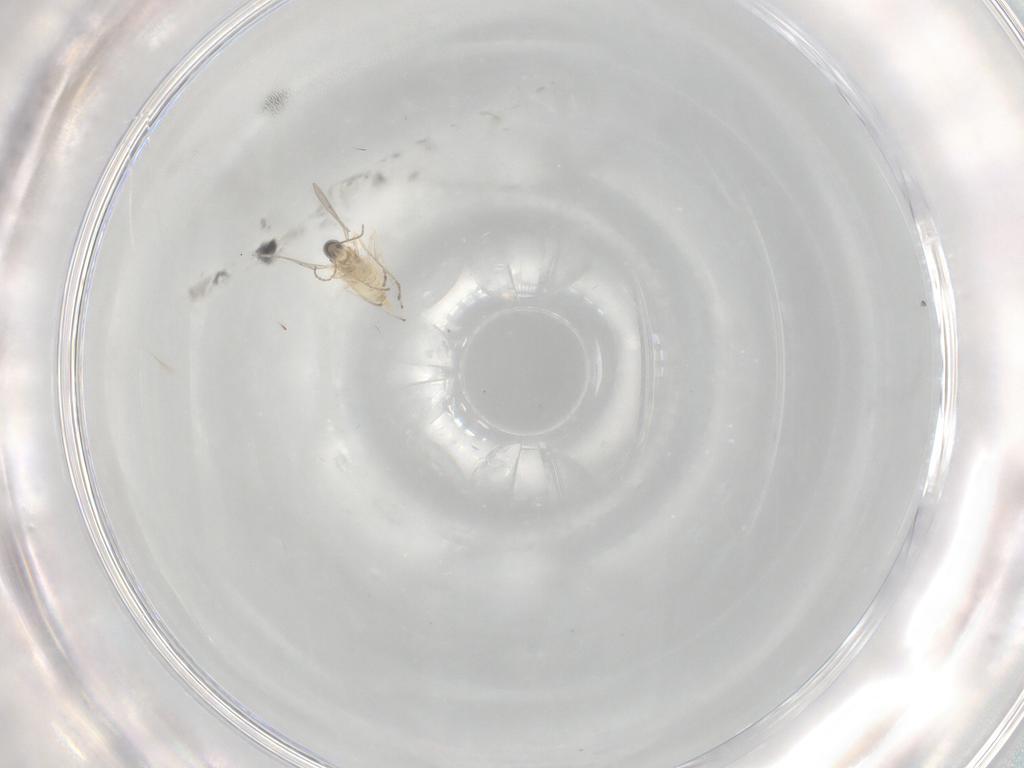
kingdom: Animalia
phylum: Arthropoda
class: Insecta
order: Diptera
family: Cecidomyiidae
